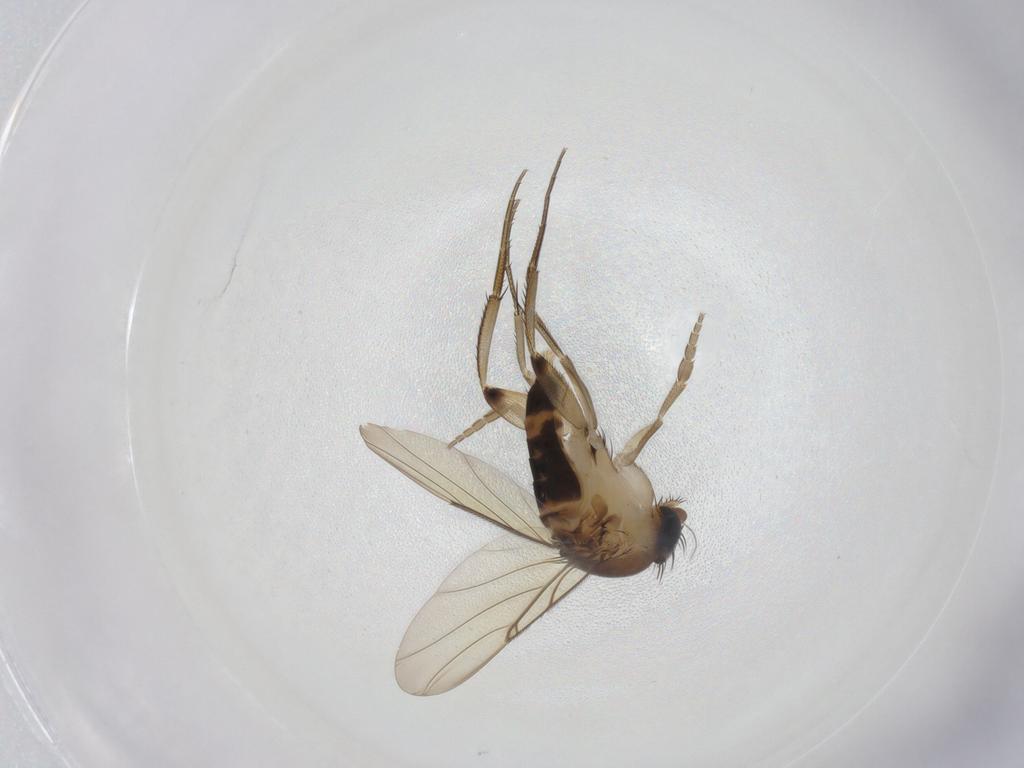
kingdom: Animalia
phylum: Arthropoda
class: Insecta
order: Diptera
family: Phoridae
